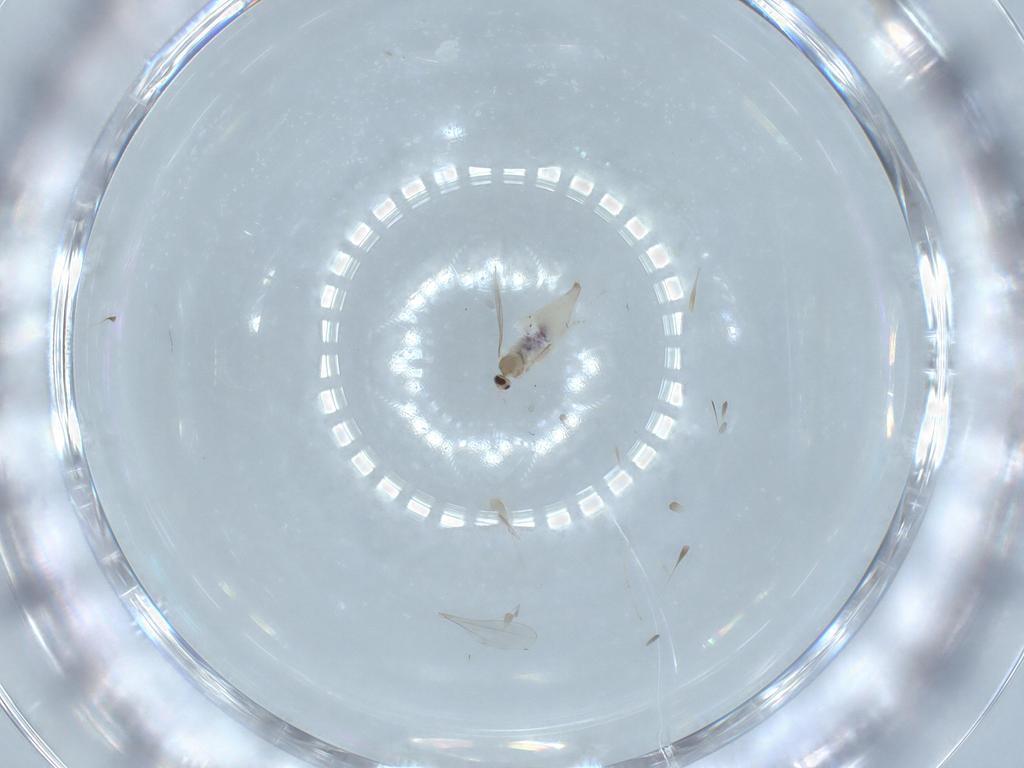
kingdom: Animalia
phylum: Arthropoda
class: Insecta
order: Diptera
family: Cecidomyiidae
